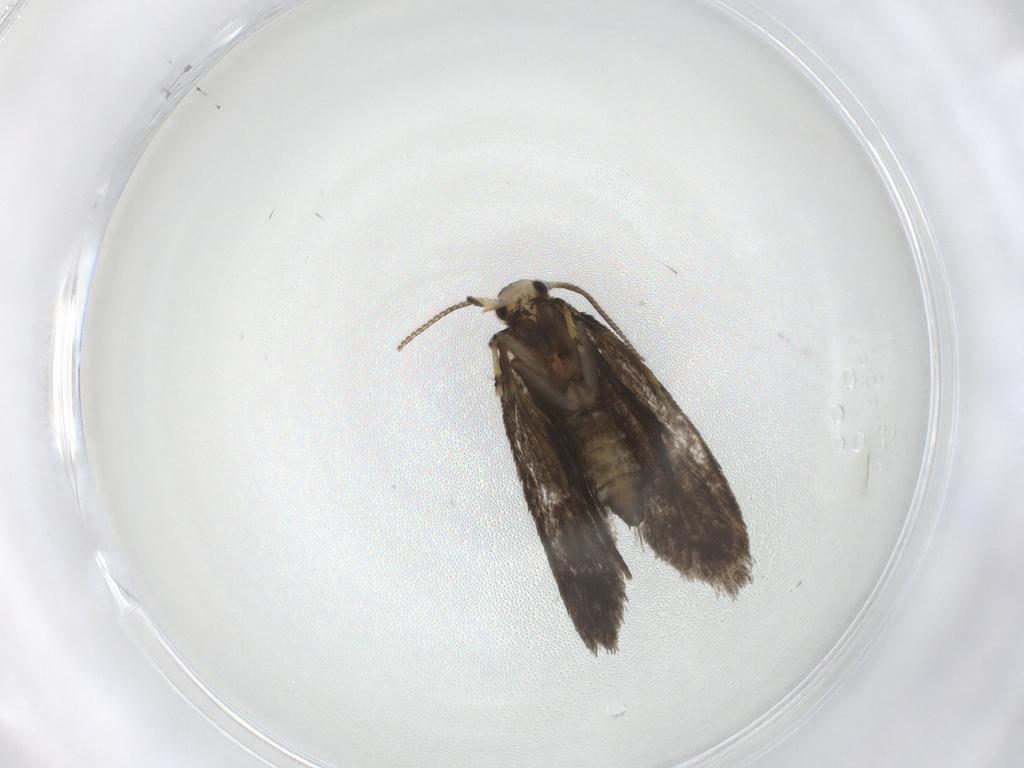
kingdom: Animalia
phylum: Arthropoda
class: Insecta
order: Lepidoptera
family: Psychidae
